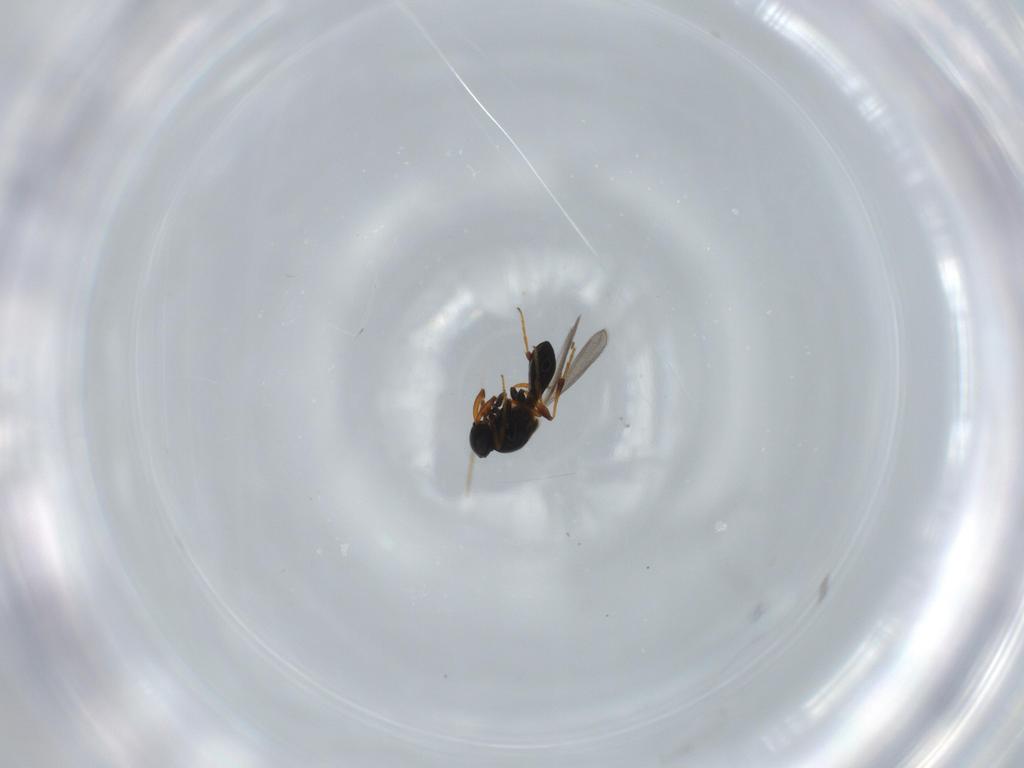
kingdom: Animalia
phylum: Arthropoda
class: Insecta
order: Hymenoptera
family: Platygastridae
